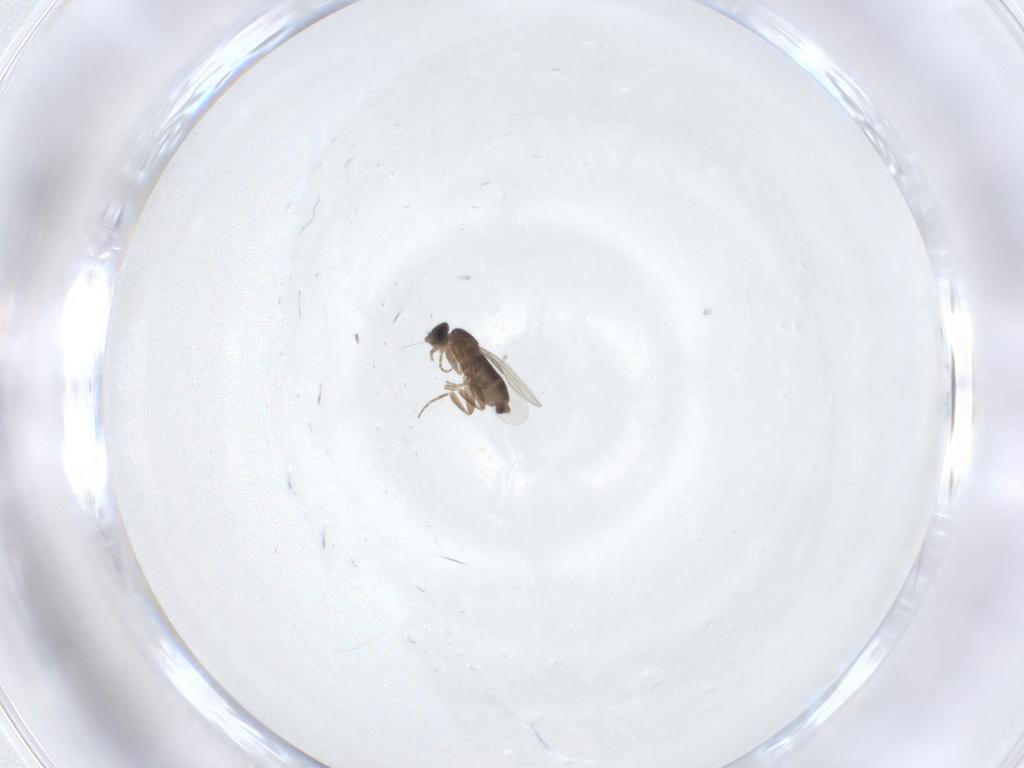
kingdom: Animalia
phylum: Arthropoda
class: Insecta
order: Diptera
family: Phoridae
